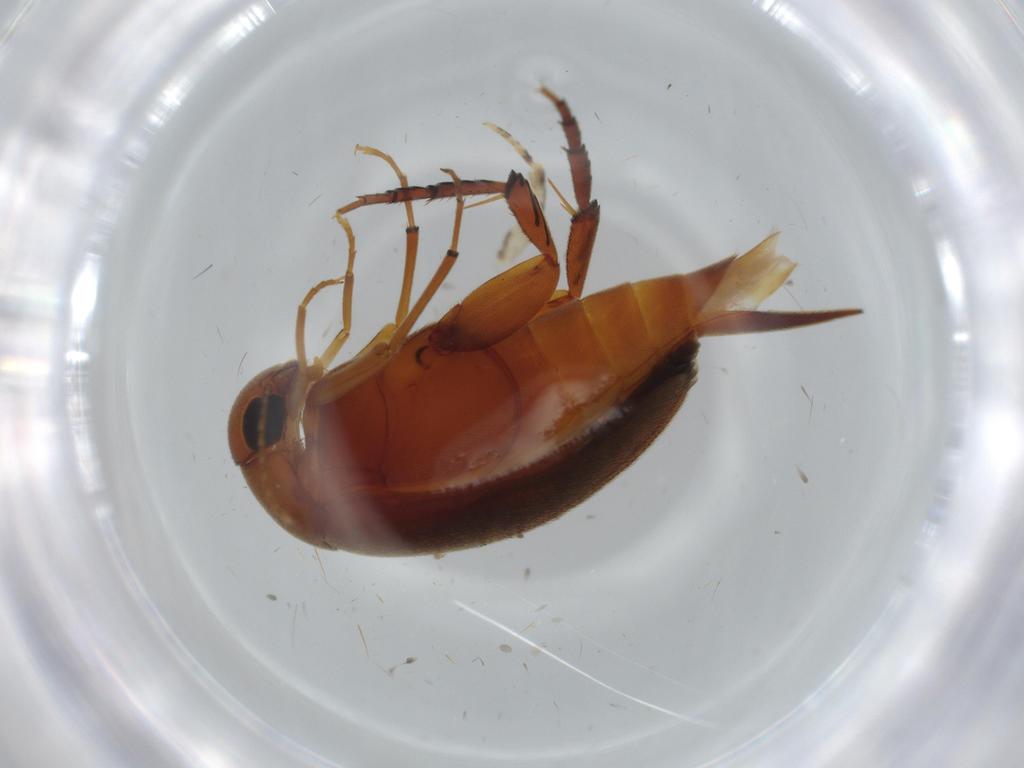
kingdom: Animalia
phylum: Arthropoda
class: Insecta
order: Coleoptera
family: Mordellidae
